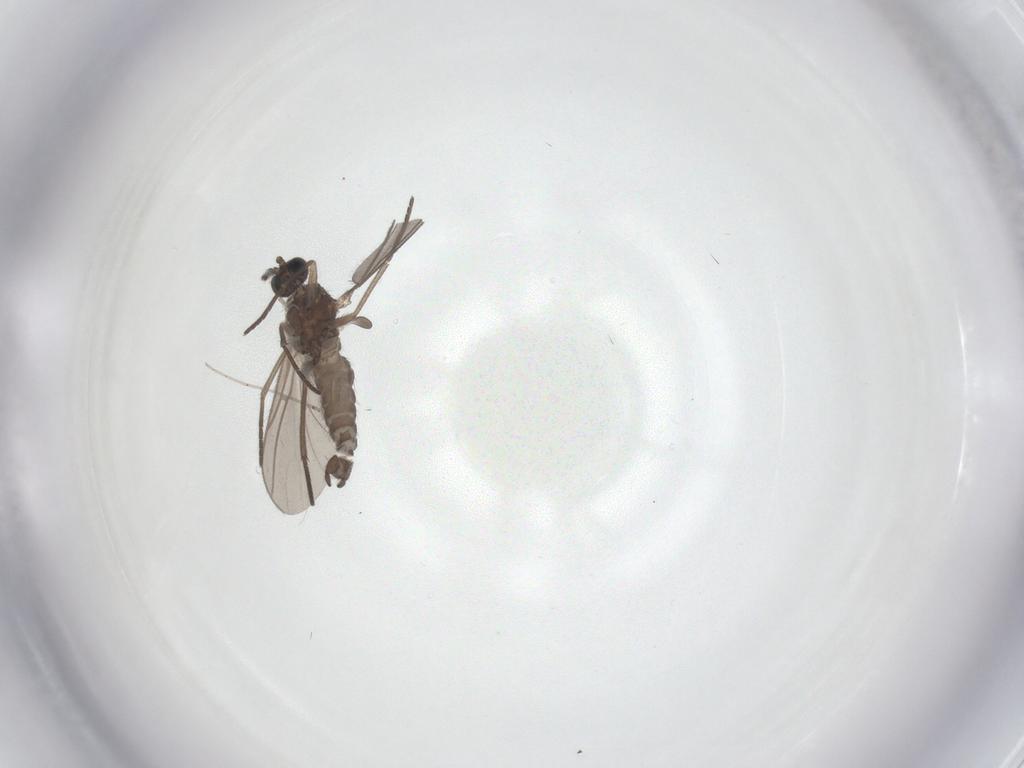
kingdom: Animalia
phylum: Arthropoda
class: Insecta
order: Diptera
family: Sciaridae
